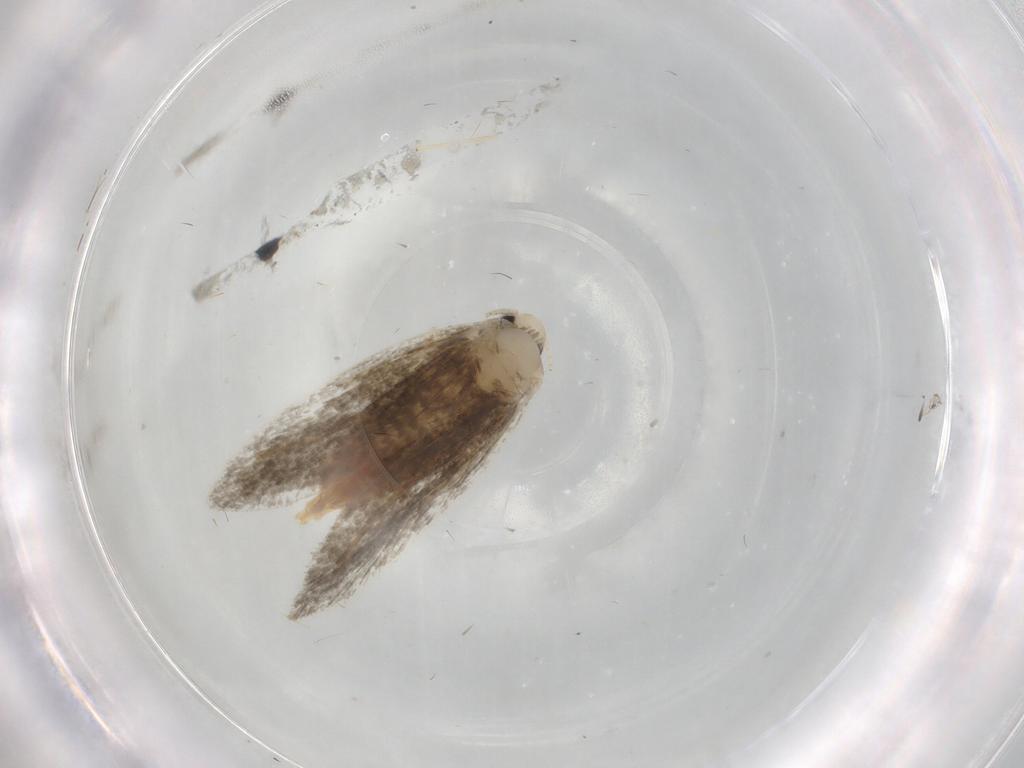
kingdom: Animalia
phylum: Arthropoda
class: Insecta
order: Lepidoptera
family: Psychidae
